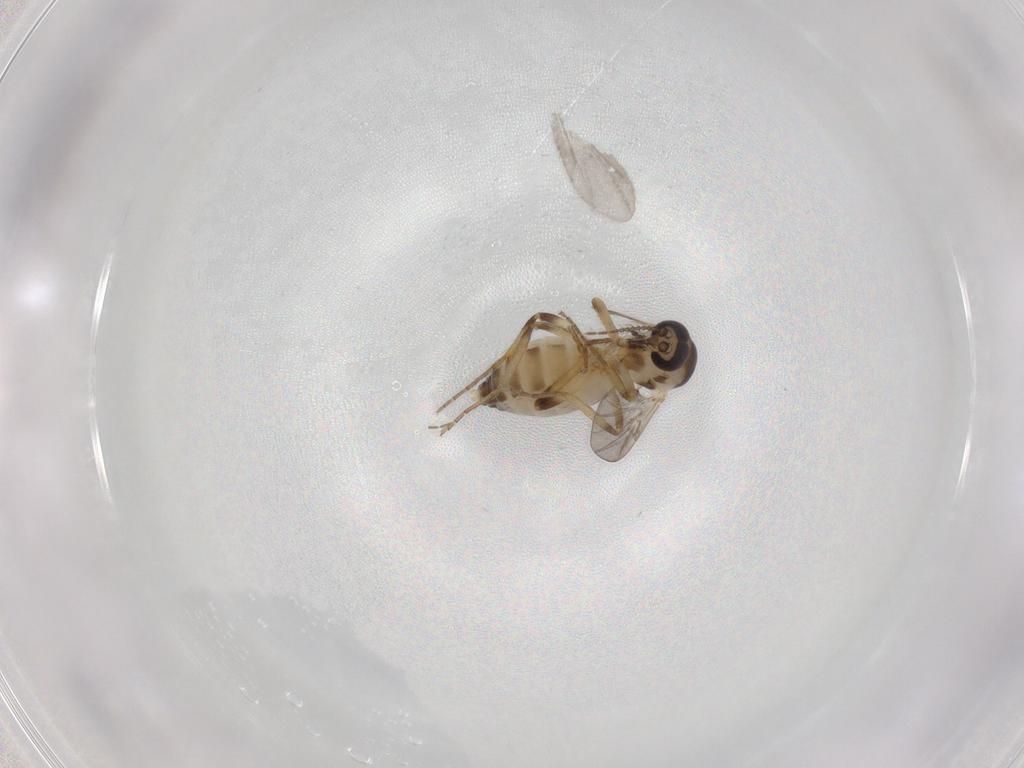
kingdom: Animalia
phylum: Arthropoda
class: Insecta
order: Diptera
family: Ceratopogonidae
